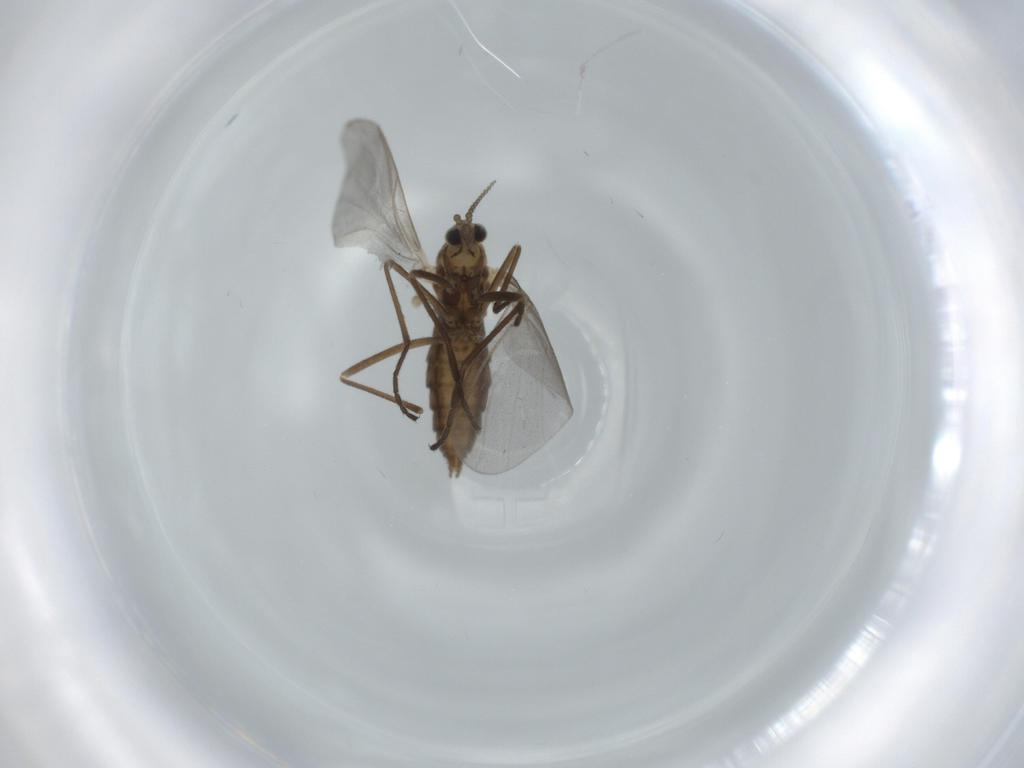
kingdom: Animalia
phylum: Arthropoda
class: Insecta
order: Diptera
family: Cecidomyiidae
